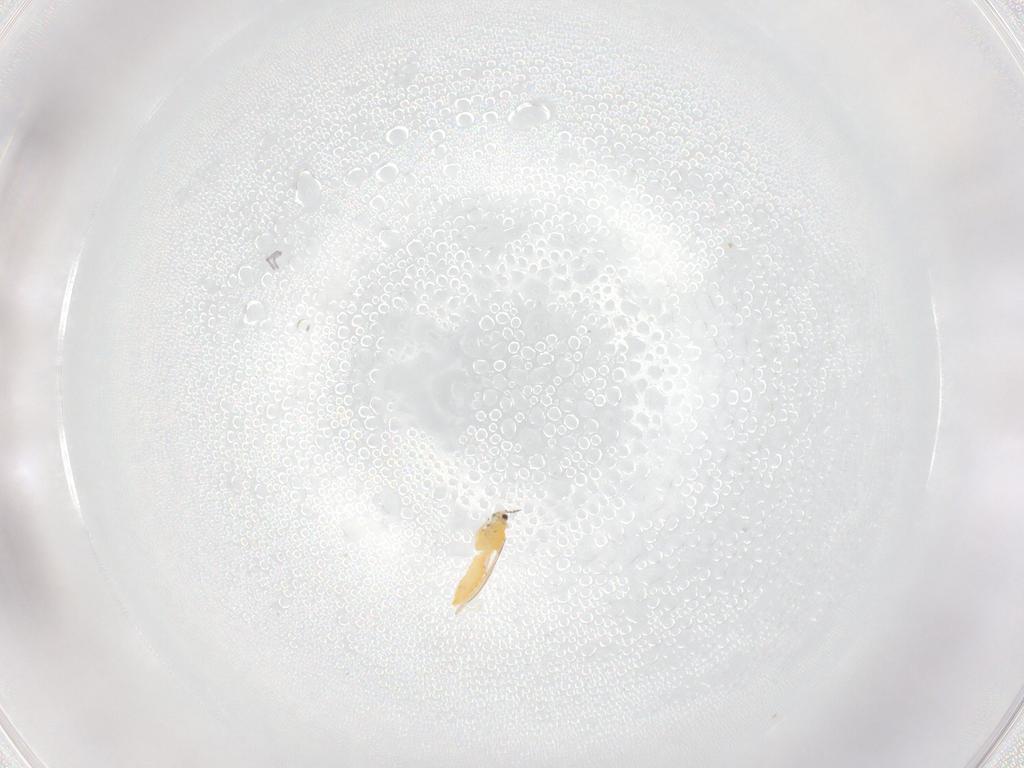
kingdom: Animalia
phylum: Arthropoda
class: Insecta
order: Thysanoptera
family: Thripidae
